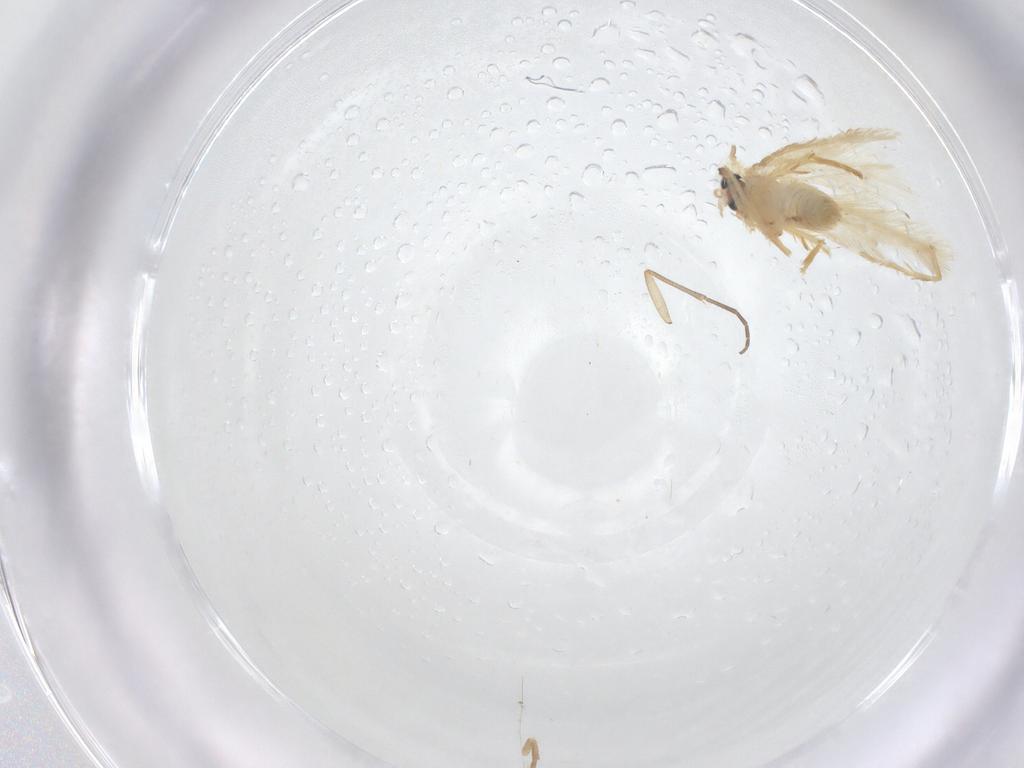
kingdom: Animalia
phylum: Arthropoda
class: Insecta
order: Lepidoptera
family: Nepticulidae
